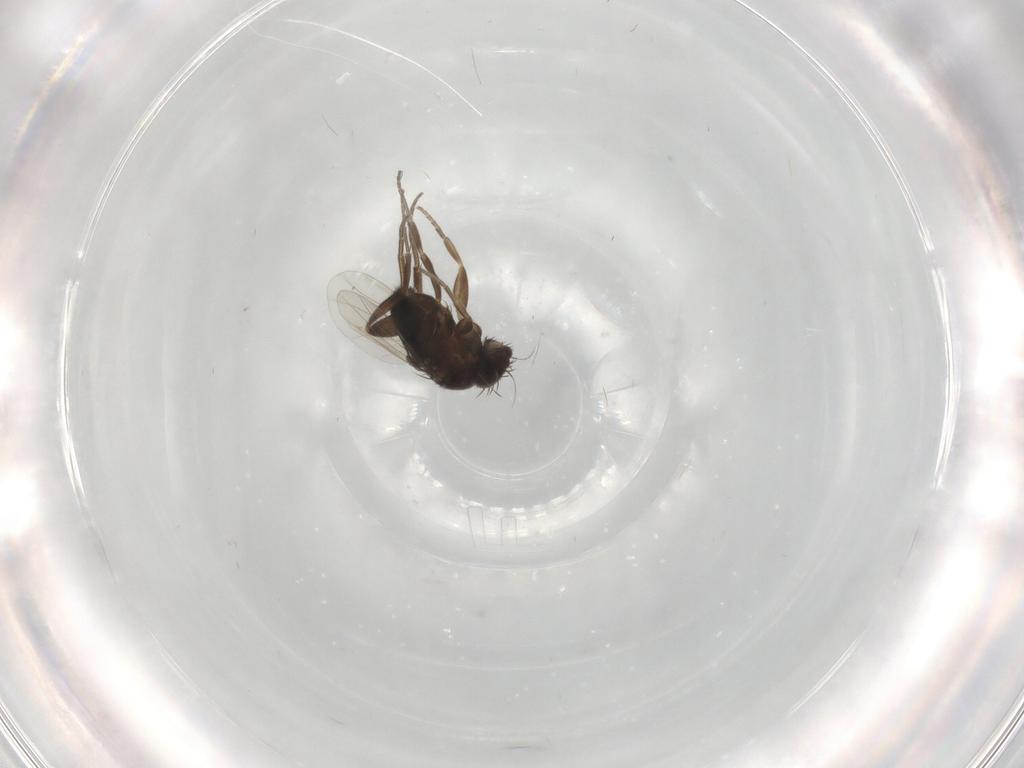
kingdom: Animalia
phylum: Arthropoda
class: Insecta
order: Diptera
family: Phoridae
